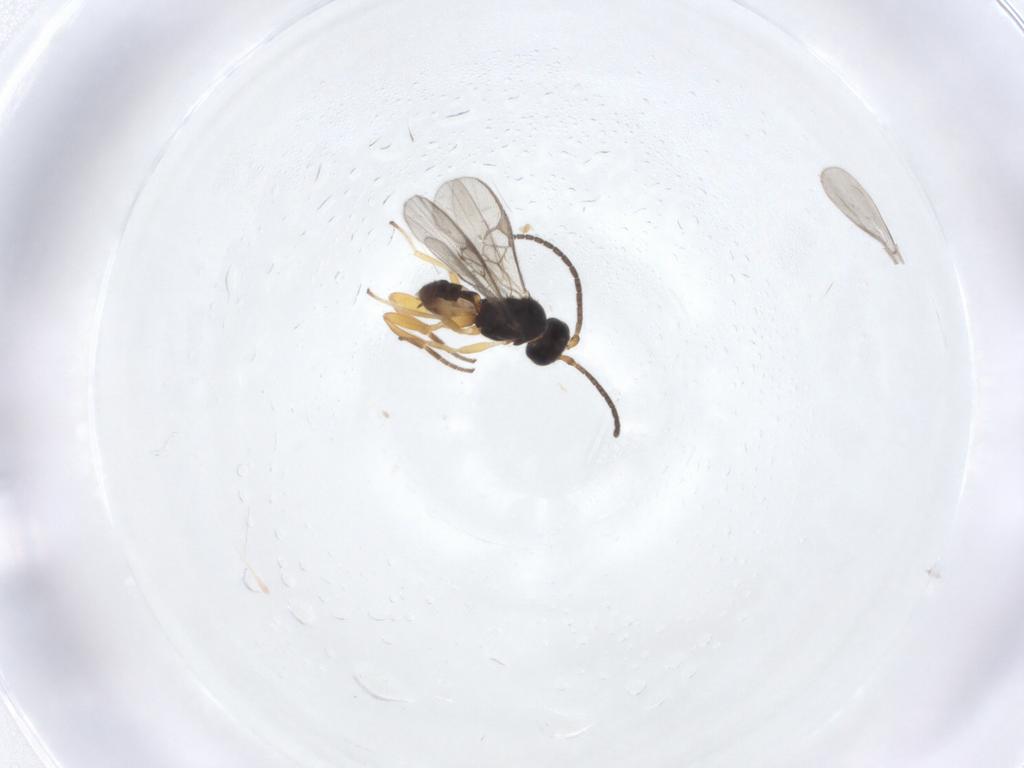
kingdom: Animalia
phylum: Arthropoda
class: Insecta
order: Hymenoptera
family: Braconidae
